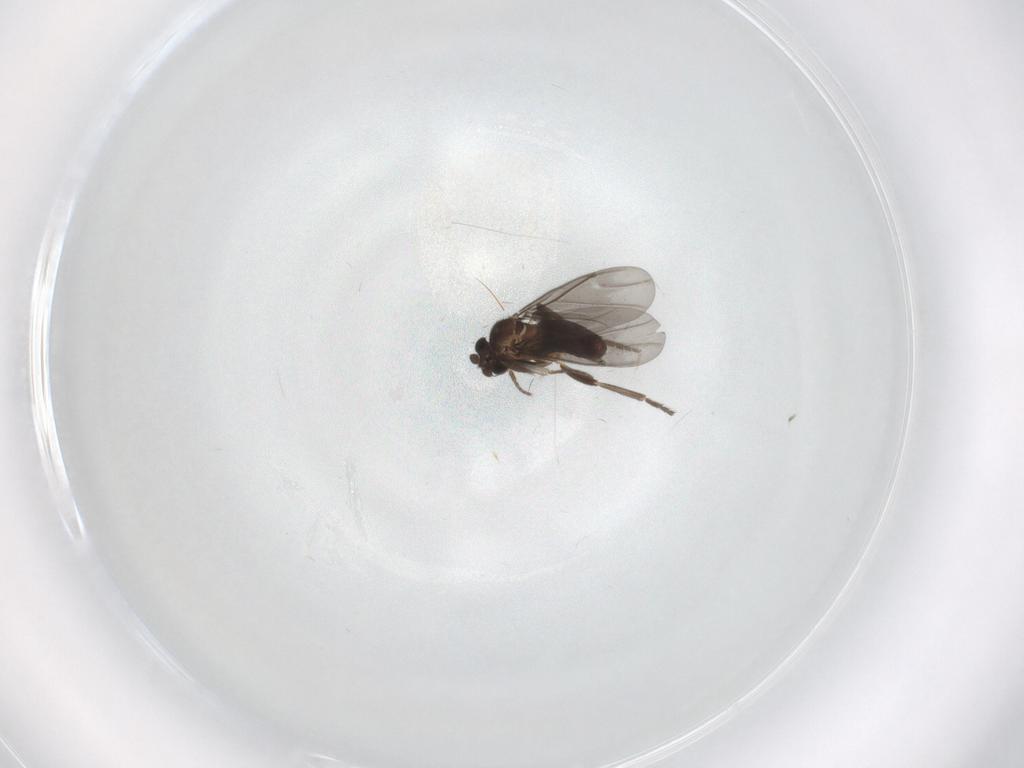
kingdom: Animalia
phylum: Arthropoda
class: Insecta
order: Diptera
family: Phoridae
